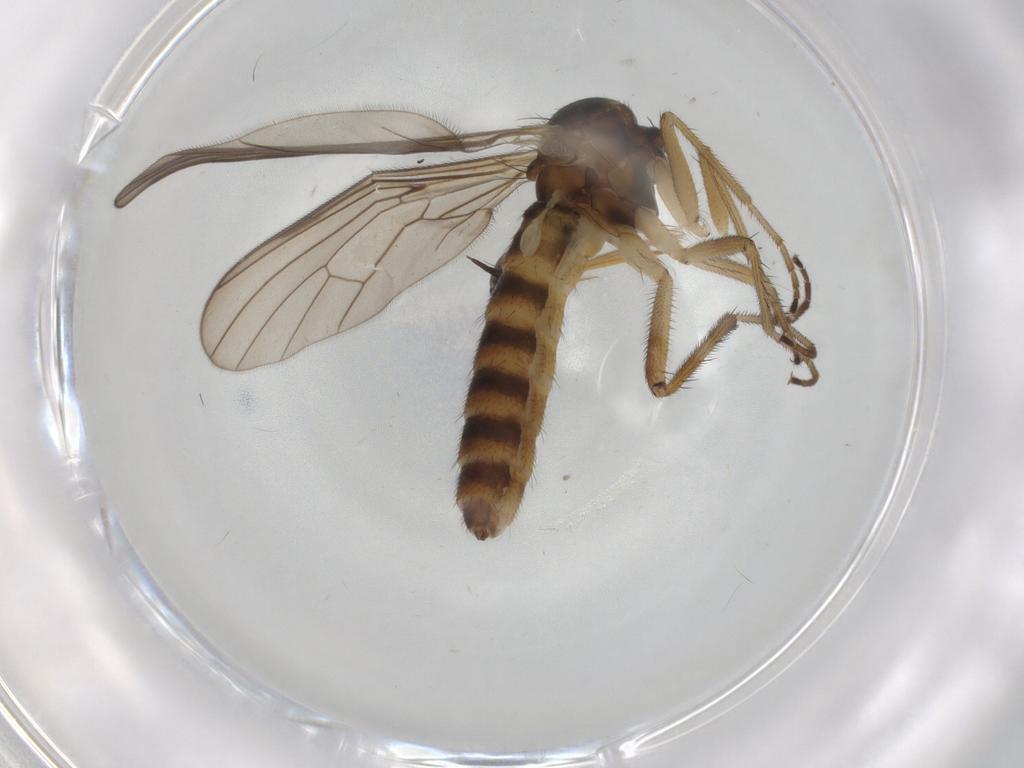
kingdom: Animalia
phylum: Arthropoda
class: Insecta
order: Diptera
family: Empididae
